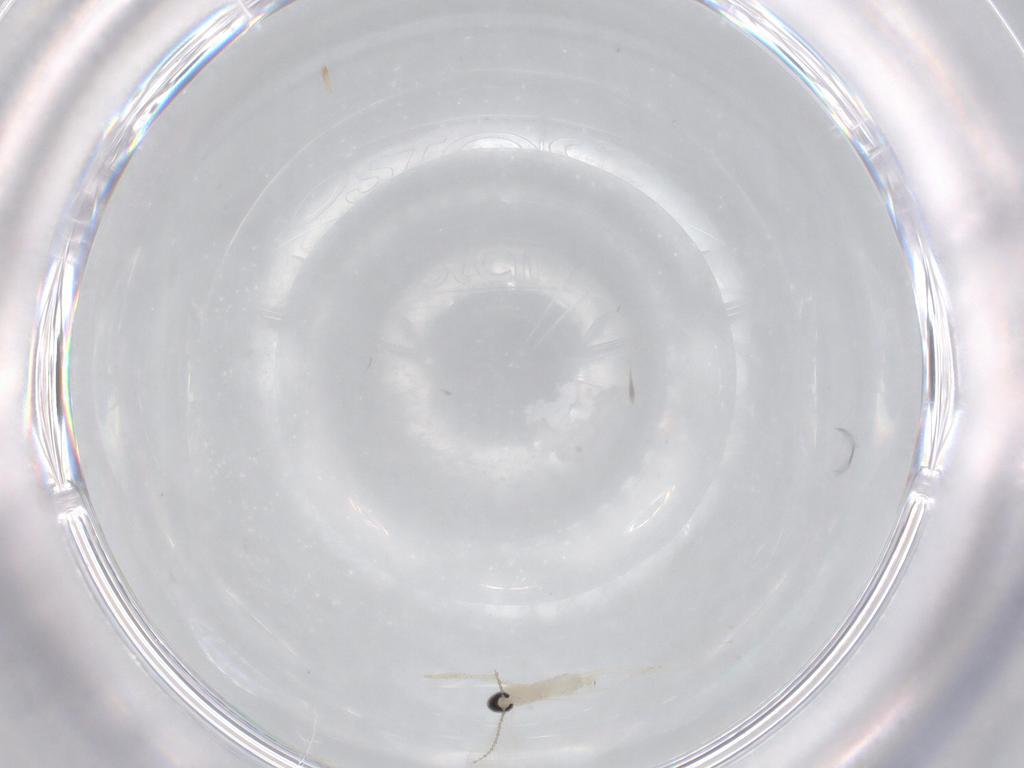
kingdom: Animalia
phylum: Arthropoda
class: Insecta
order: Diptera
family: Cecidomyiidae
